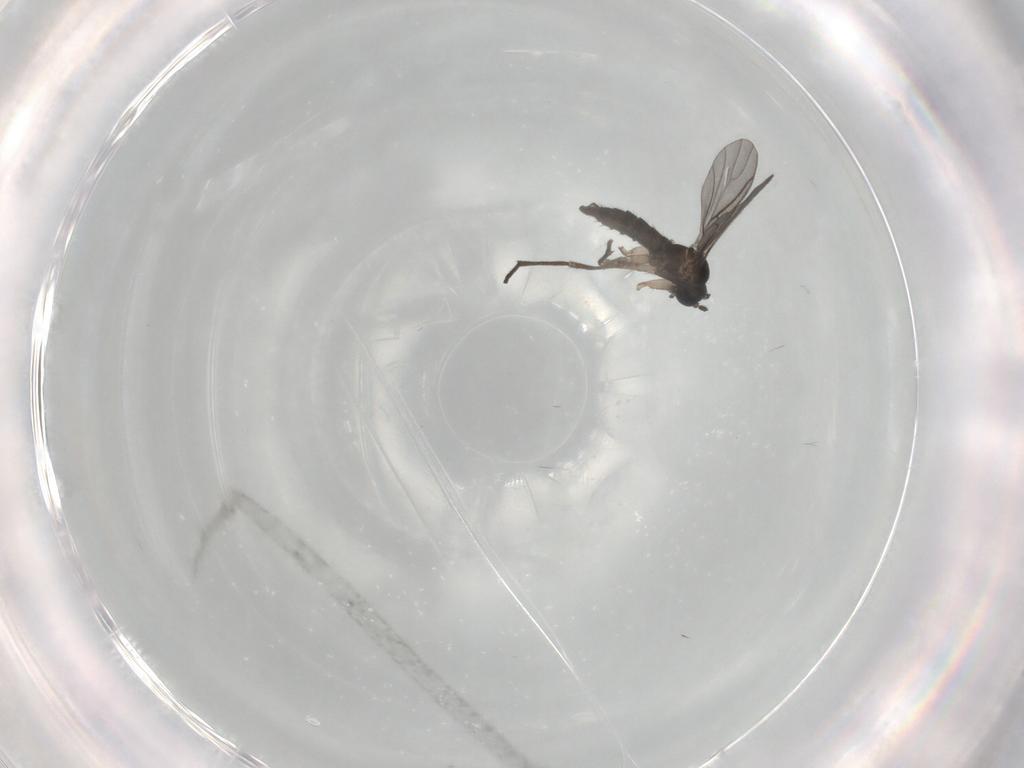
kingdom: Animalia
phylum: Arthropoda
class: Insecta
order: Diptera
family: Sciaridae
